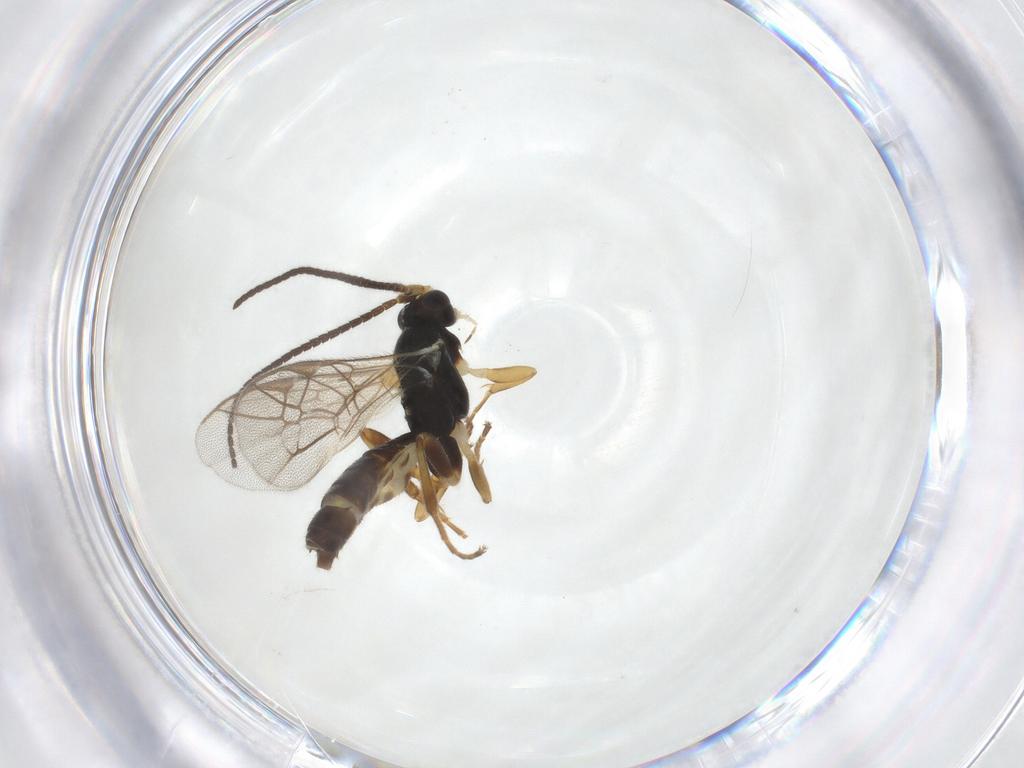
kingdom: Animalia
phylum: Arthropoda
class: Insecta
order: Hymenoptera
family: Ichneumonidae
